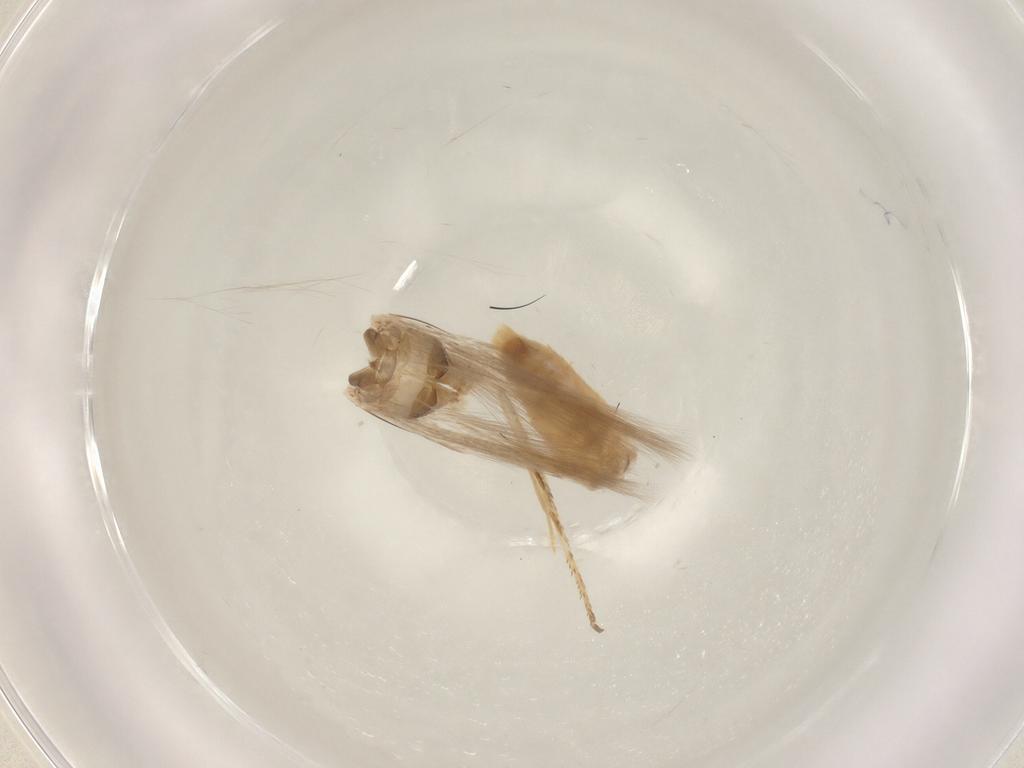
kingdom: Animalia
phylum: Arthropoda
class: Insecta
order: Lepidoptera
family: Gelechiidae
